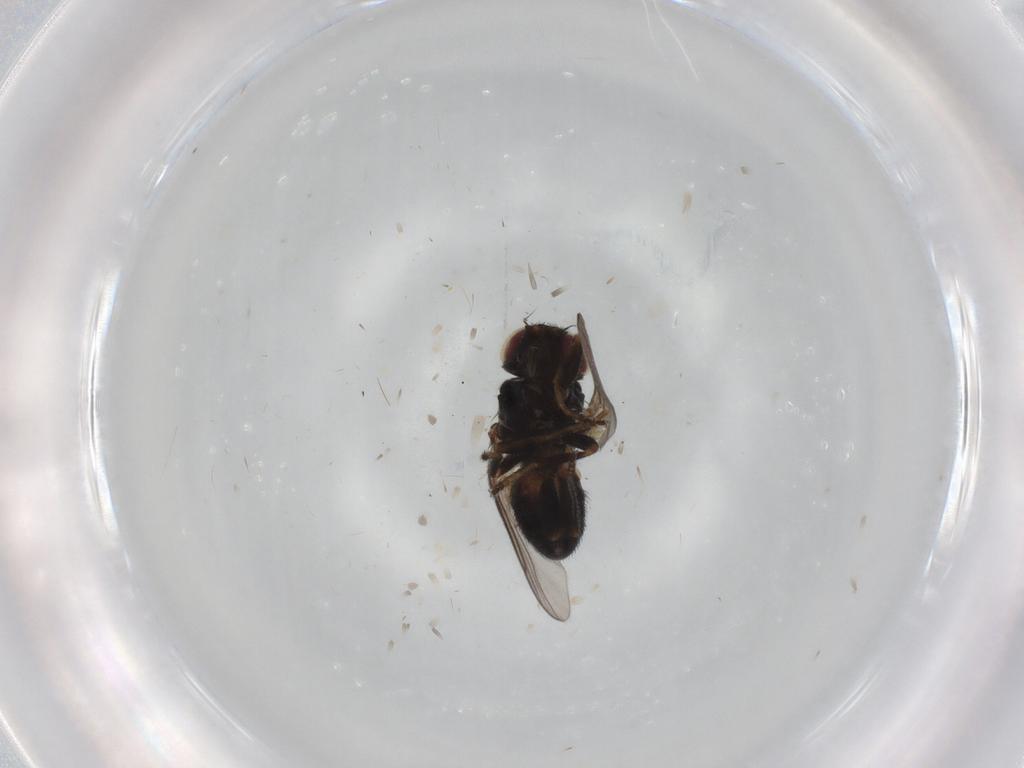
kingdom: Animalia
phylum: Arthropoda
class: Insecta
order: Diptera
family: Chloropidae
